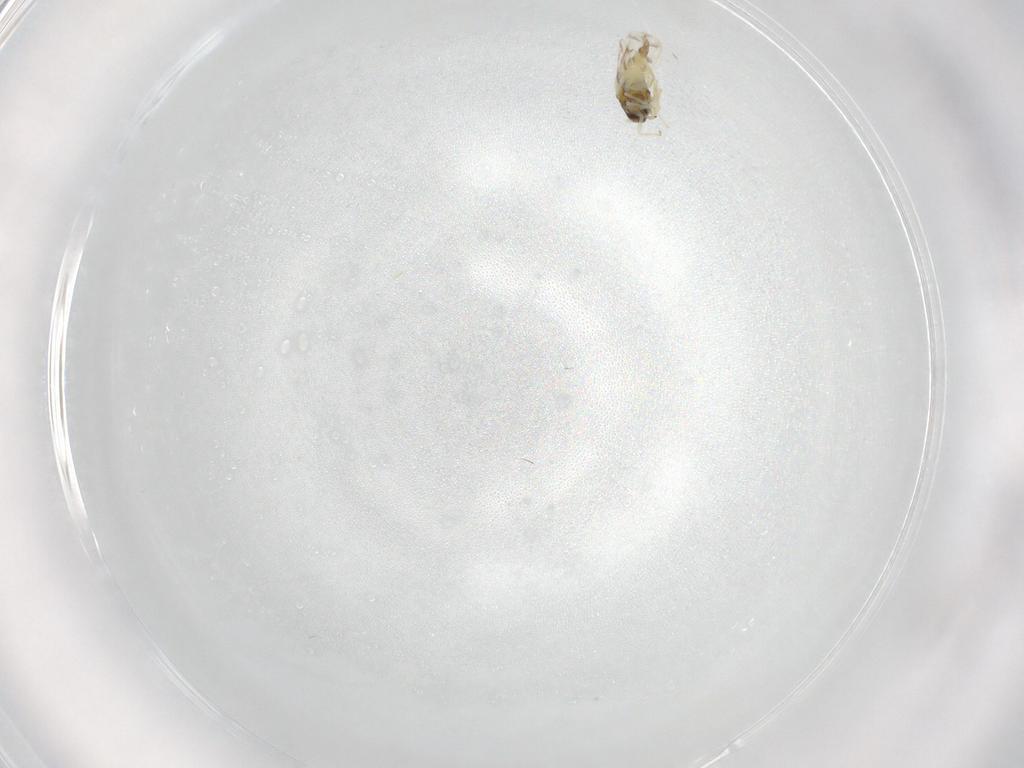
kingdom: Animalia
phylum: Arthropoda
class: Insecta
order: Hemiptera
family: Aleyrodidae
